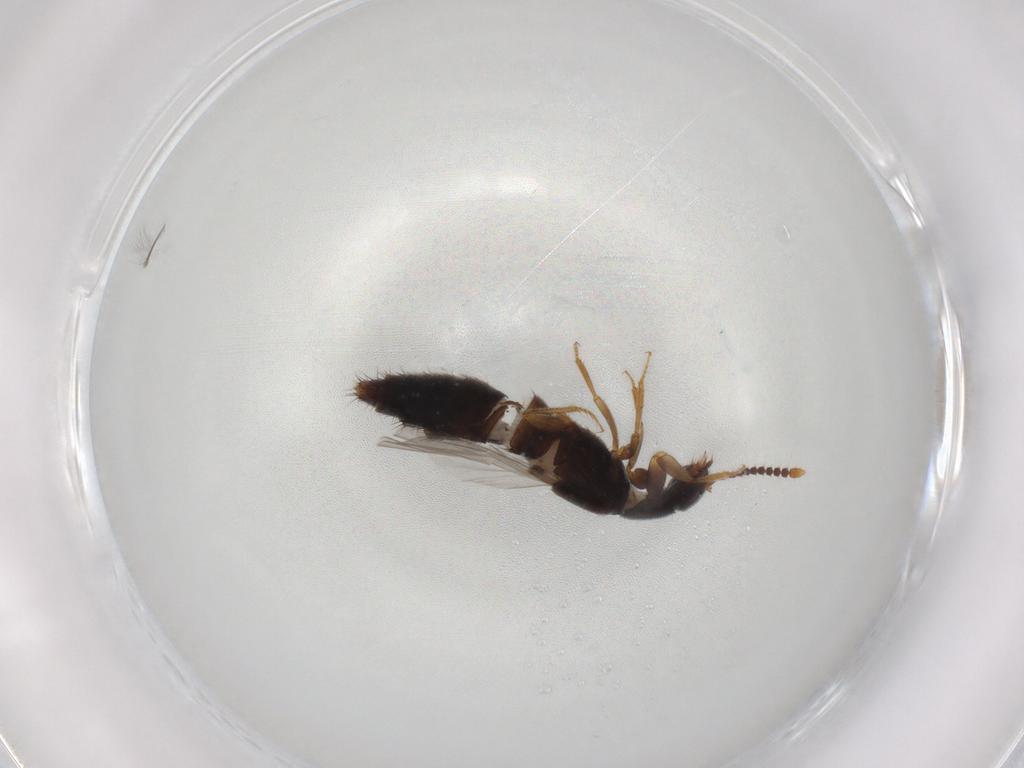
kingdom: Animalia
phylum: Arthropoda
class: Insecta
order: Coleoptera
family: Staphylinidae
